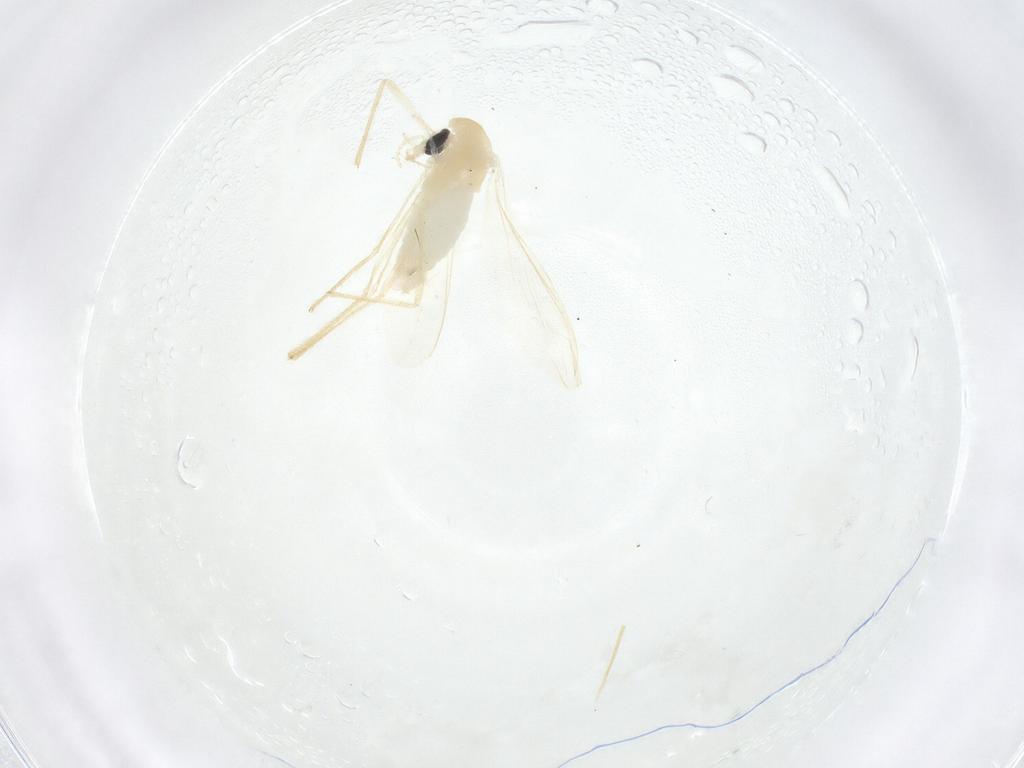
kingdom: Animalia
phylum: Arthropoda
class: Insecta
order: Diptera
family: Chironomidae
